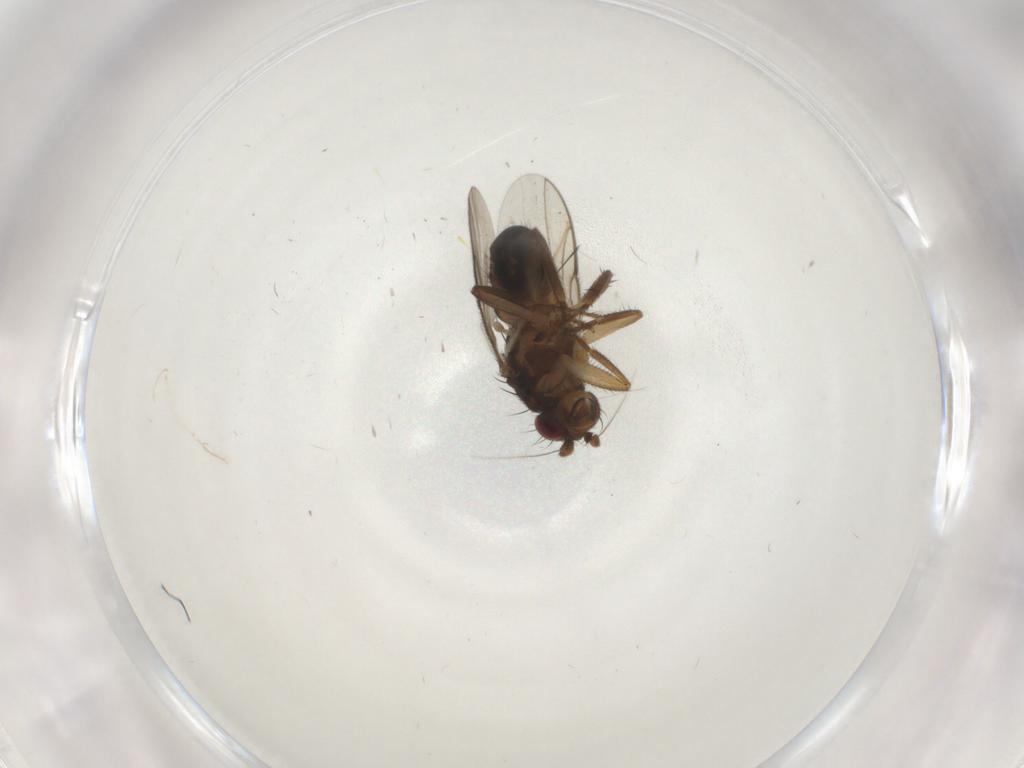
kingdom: Animalia
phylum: Arthropoda
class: Insecta
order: Diptera
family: Sphaeroceridae
